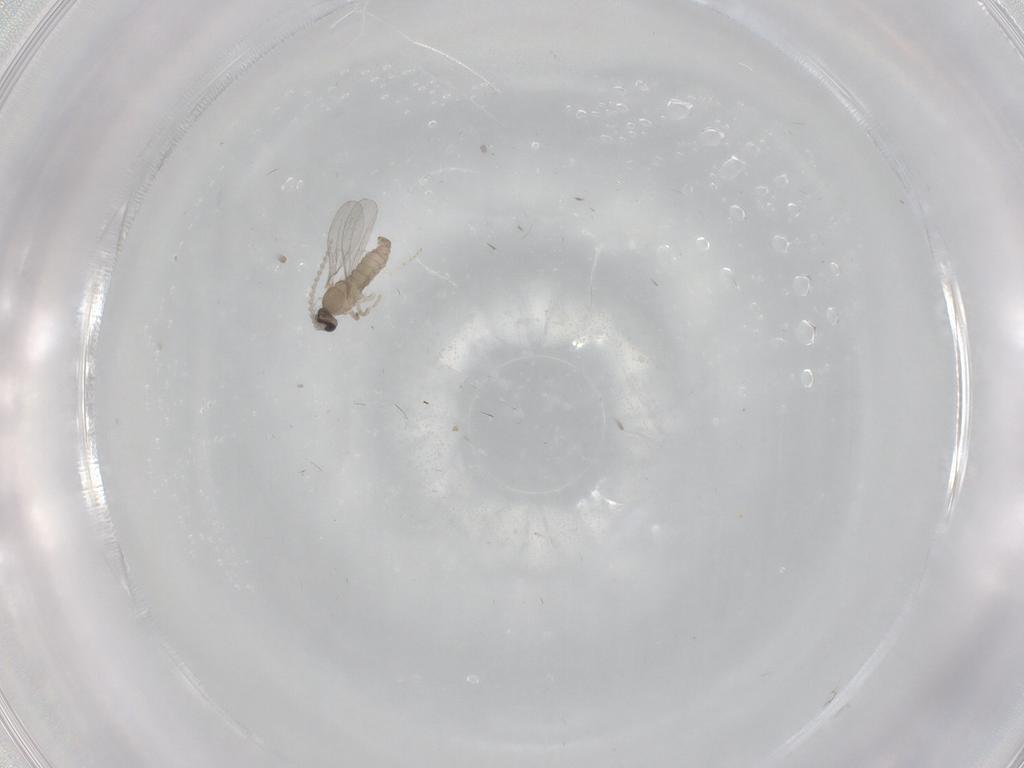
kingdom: Animalia
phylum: Arthropoda
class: Insecta
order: Diptera
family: Cecidomyiidae
